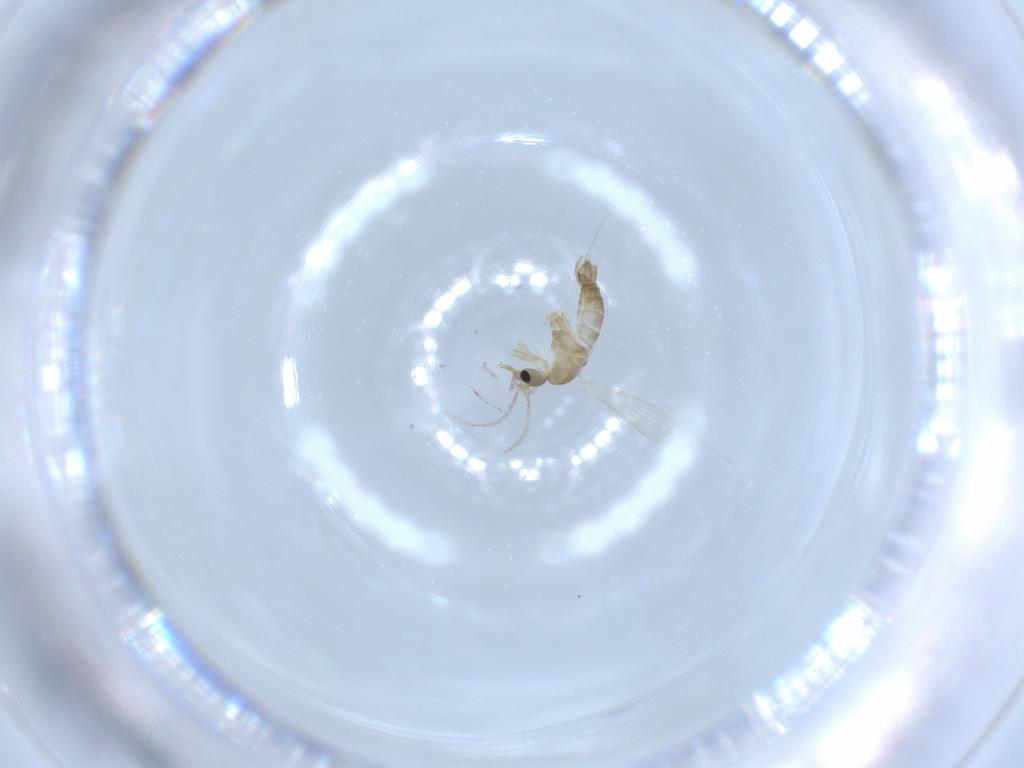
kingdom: Animalia
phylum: Arthropoda
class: Insecta
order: Diptera
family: Psychodidae
